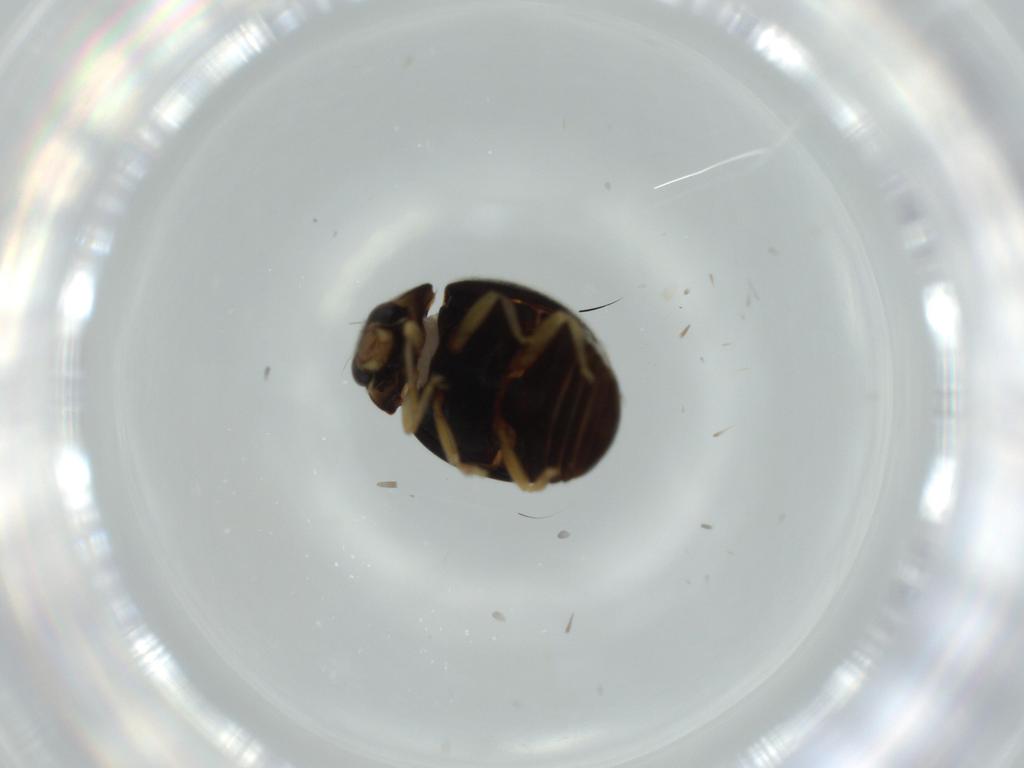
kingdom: Animalia
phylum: Arthropoda
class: Insecta
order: Coleoptera
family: Coccinellidae
